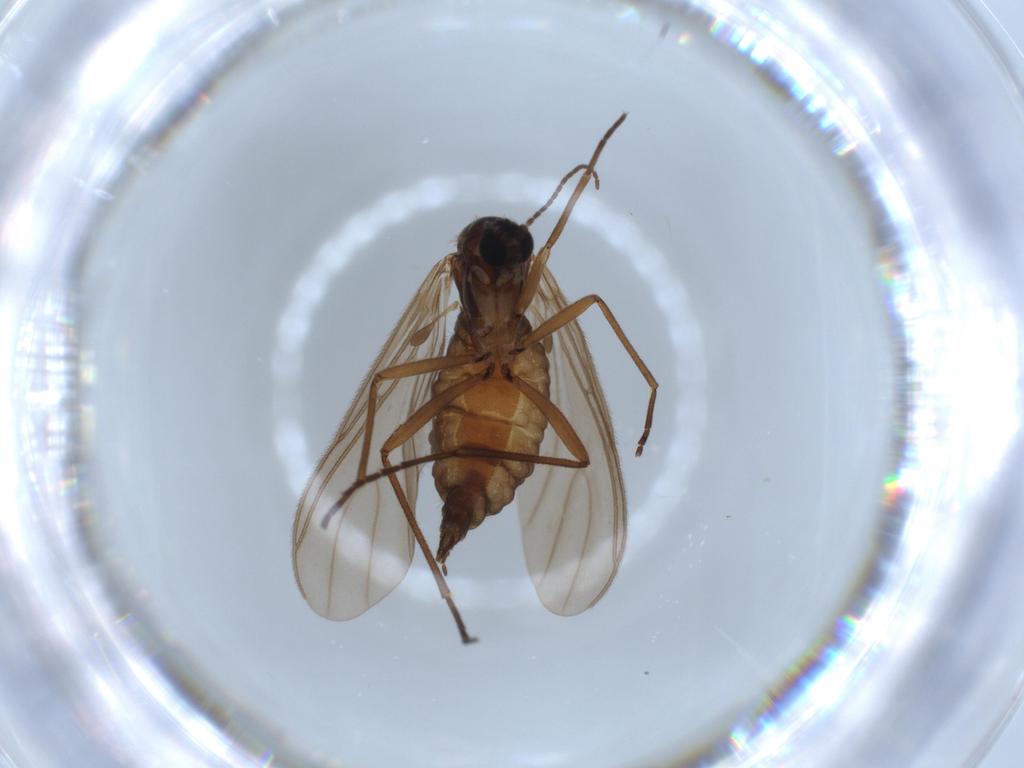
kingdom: Animalia
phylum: Arthropoda
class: Insecta
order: Diptera
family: Sciaridae
